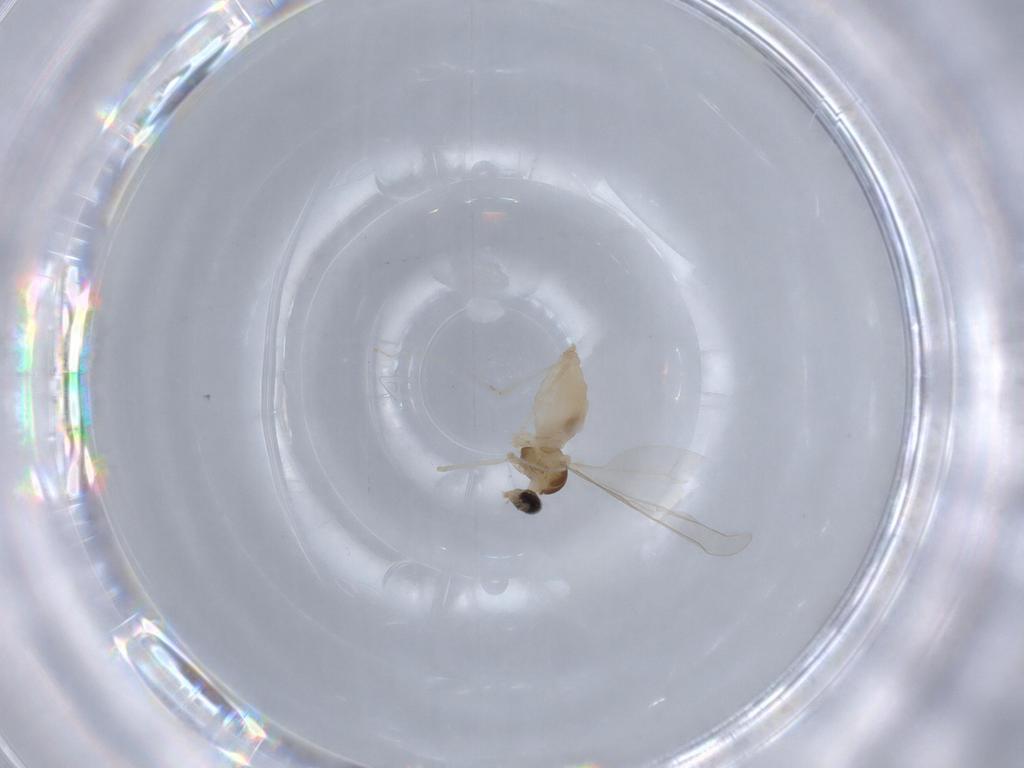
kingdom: Animalia
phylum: Arthropoda
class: Insecta
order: Diptera
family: Cecidomyiidae
